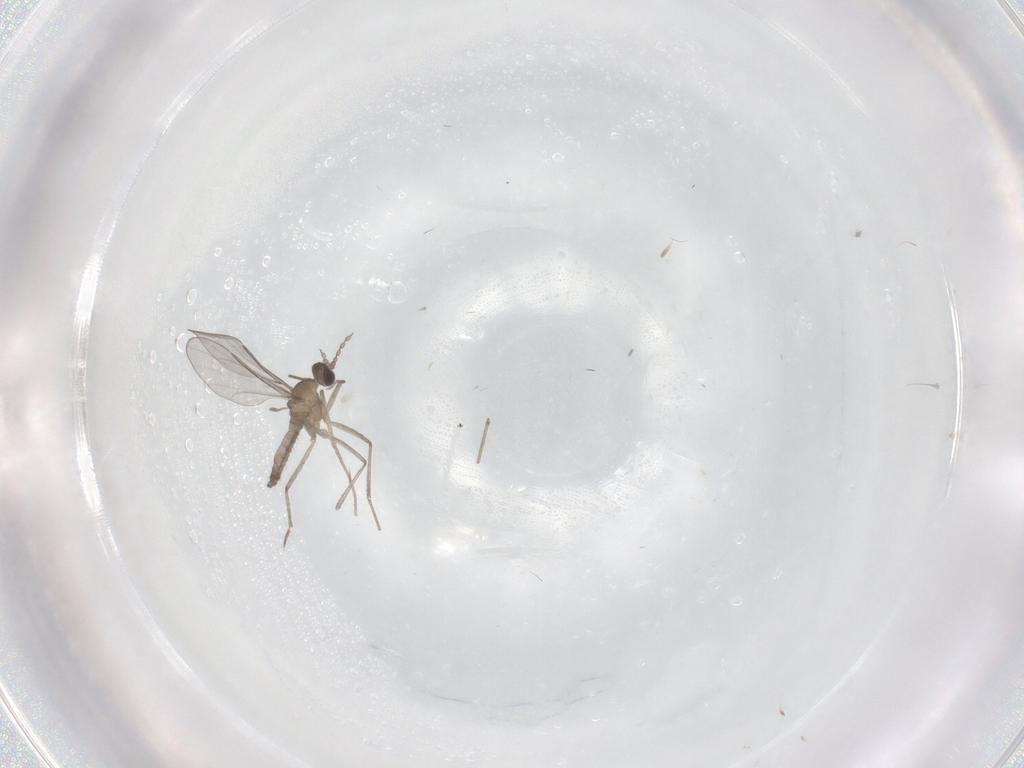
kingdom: Animalia
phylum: Arthropoda
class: Insecta
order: Diptera
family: Cecidomyiidae
